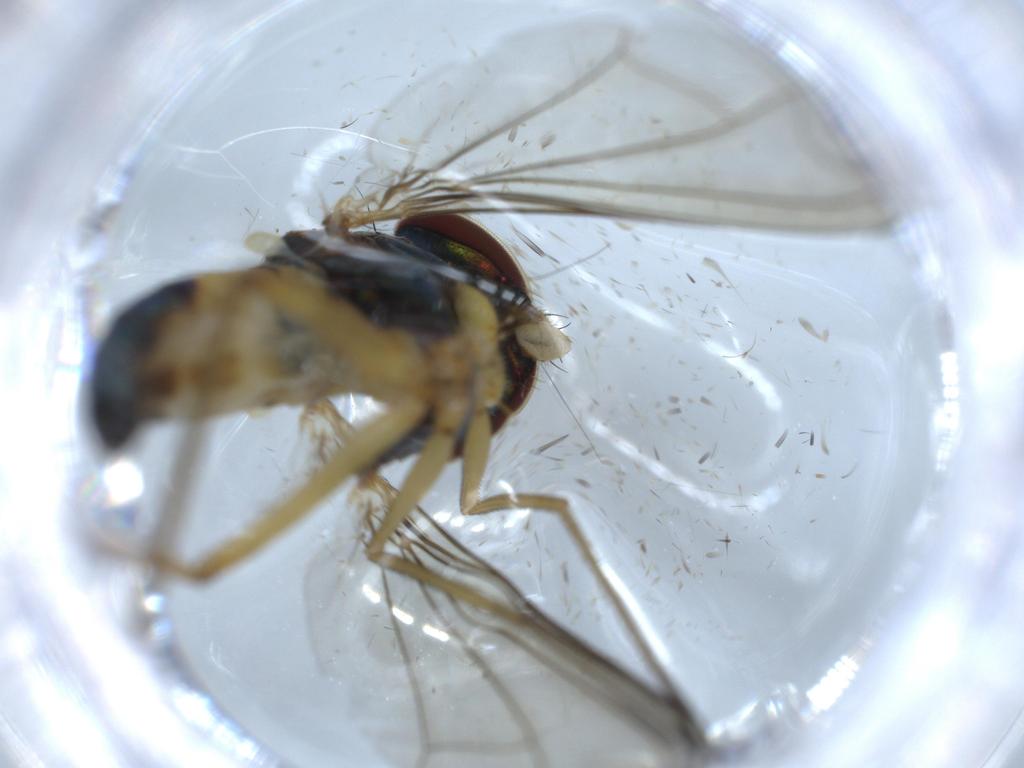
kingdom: Animalia
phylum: Arthropoda
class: Insecta
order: Diptera
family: Dolichopodidae
